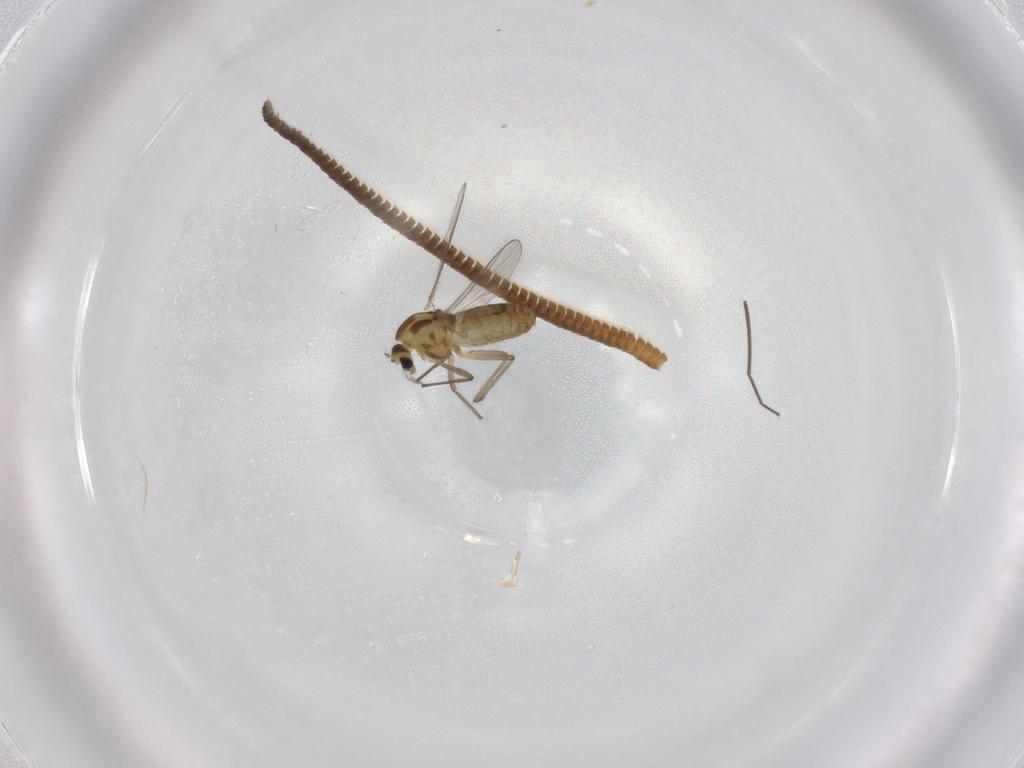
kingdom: Animalia
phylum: Arthropoda
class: Insecta
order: Diptera
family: Chironomidae
